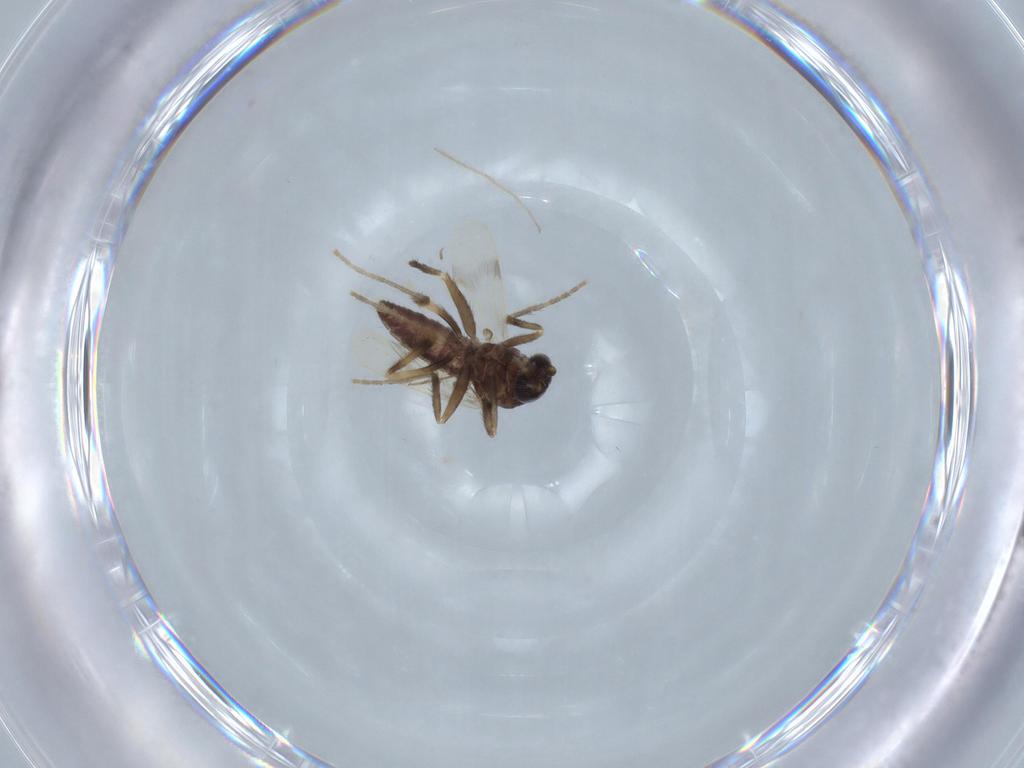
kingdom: Animalia
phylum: Arthropoda
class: Insecta
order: Diptera
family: Corethrellidae
